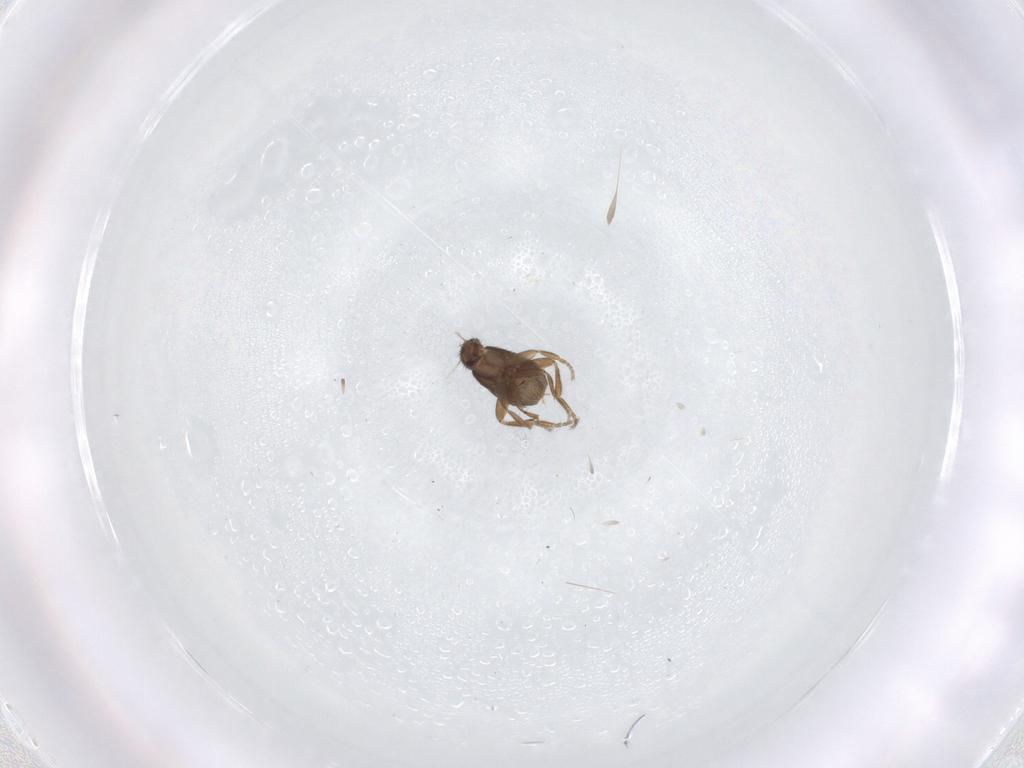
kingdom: Animalia
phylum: Arthropoda
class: Insecta
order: Diptera
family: Phoridae
